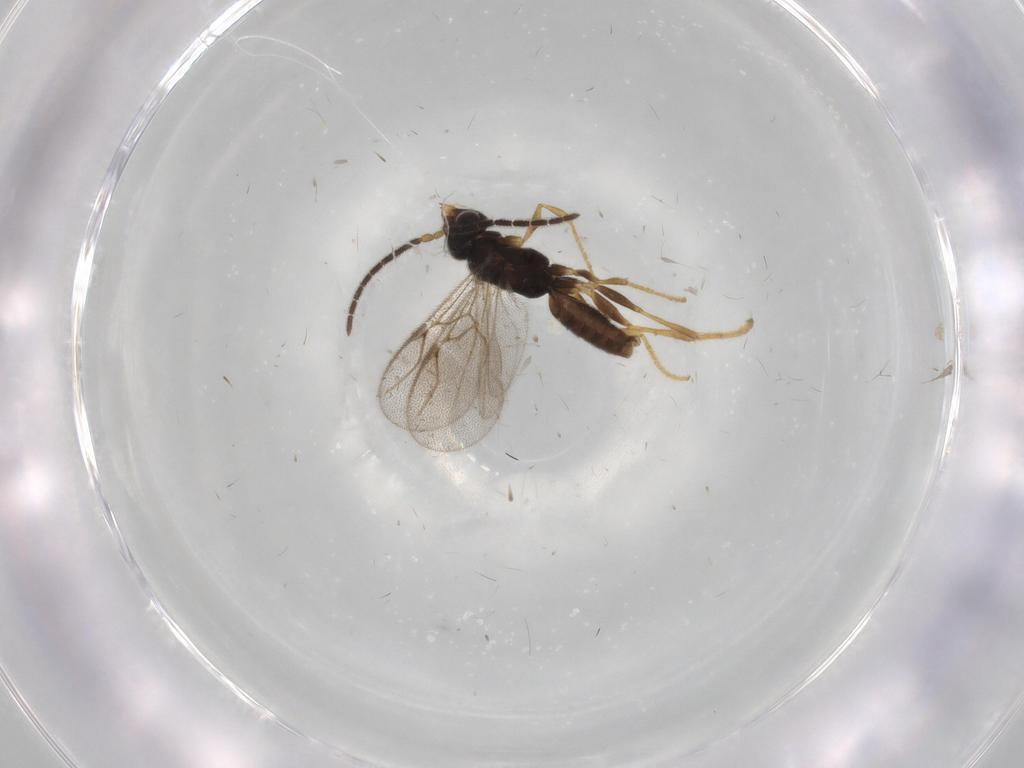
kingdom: Animalia
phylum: Arthropoda
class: Insecta
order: Hymenoptera
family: Dryinidae
